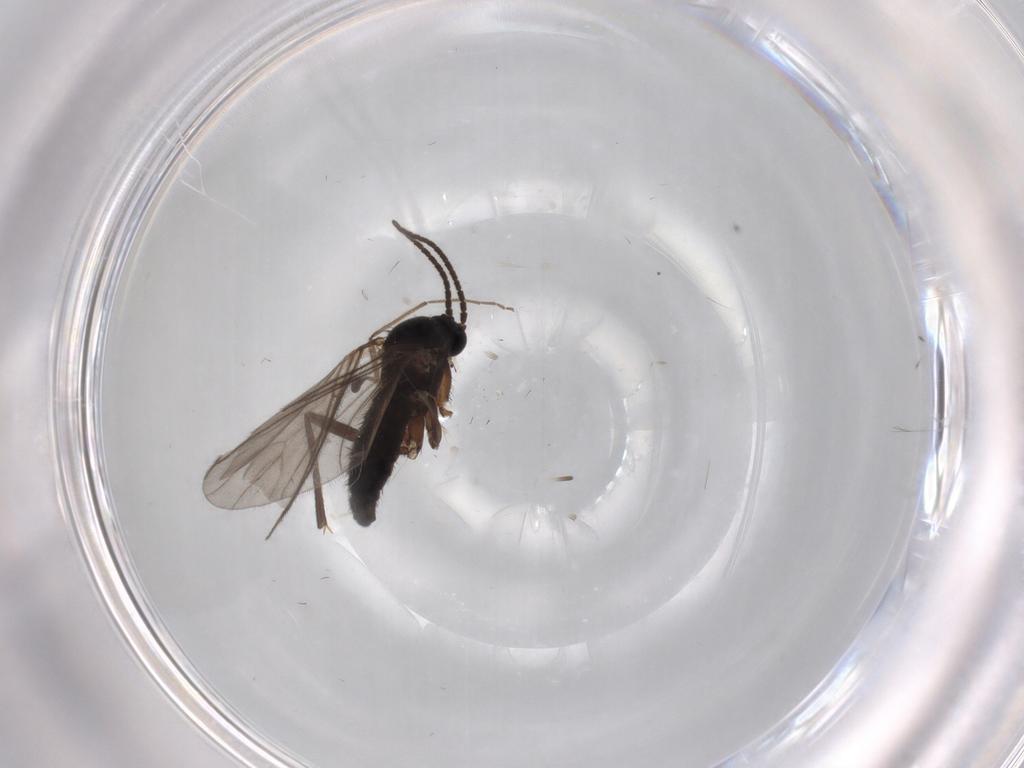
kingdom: Animalia
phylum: Arthropoda
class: Insecta
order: Diptera
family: Sciaridae
